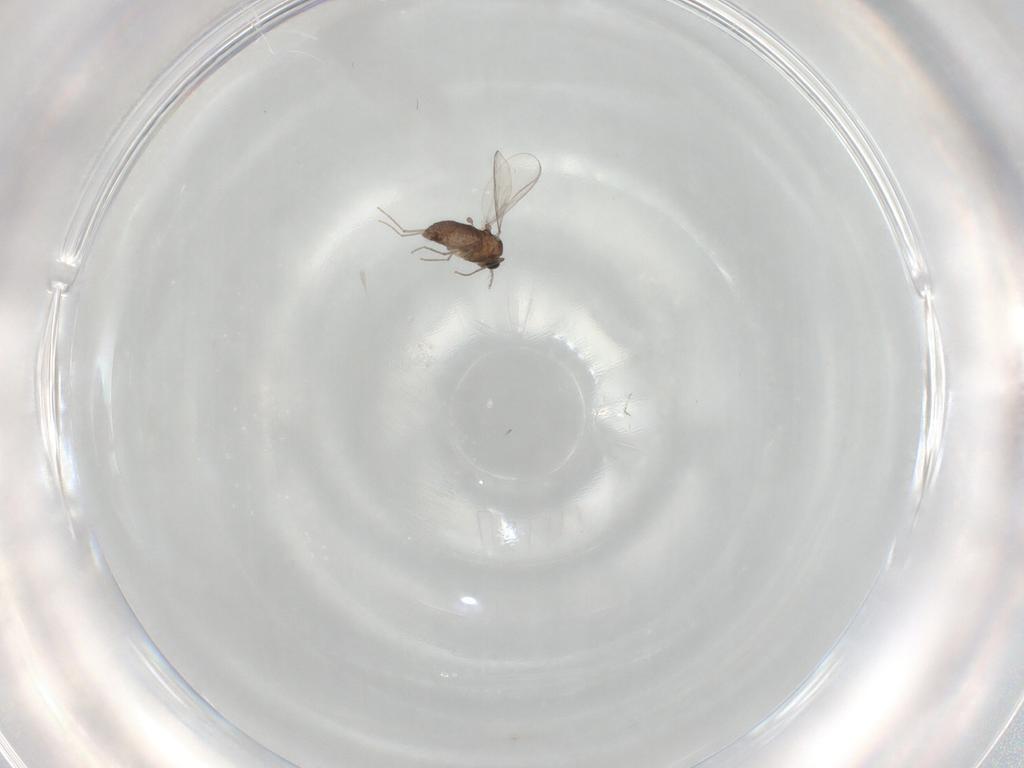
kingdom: Animalia
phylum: Arthropoda
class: Insecta
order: Diptera
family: Chironomidae
